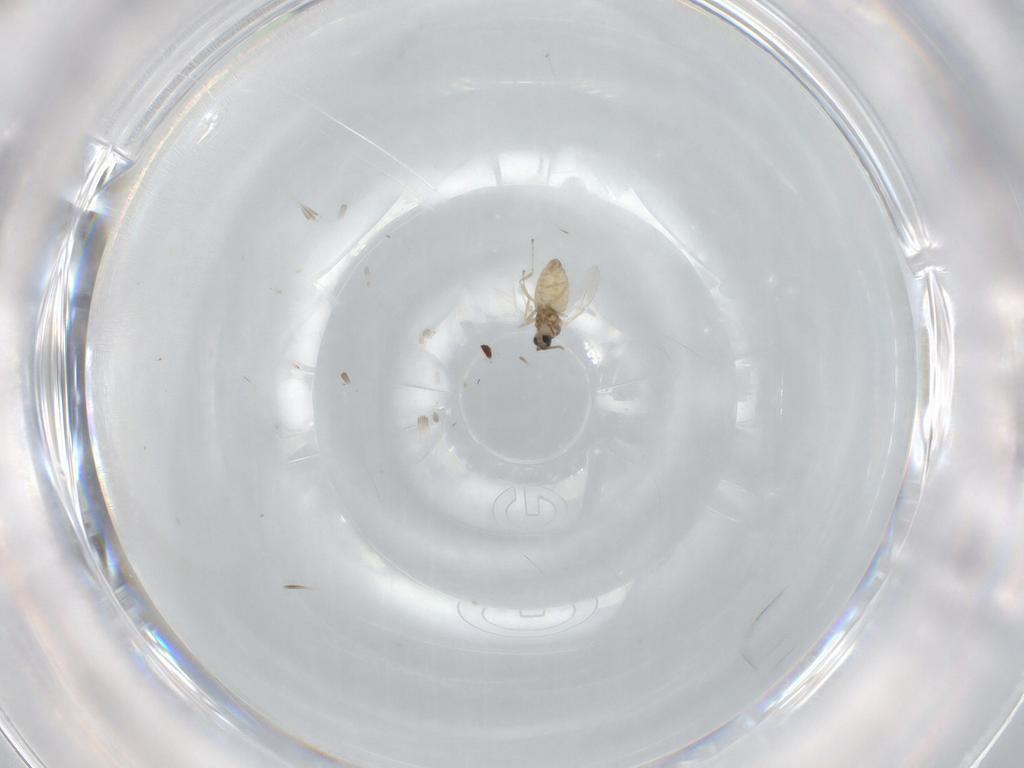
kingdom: Animalia
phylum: Arthropoda
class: Insecta
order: Diptera
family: Cecidomyiidae
